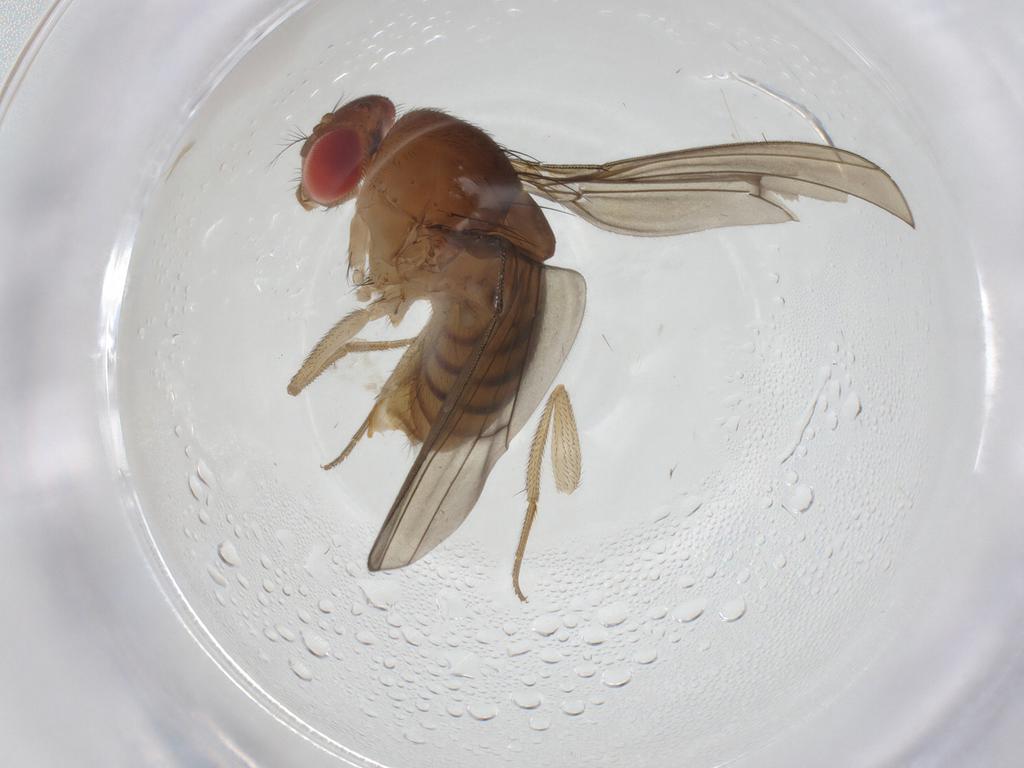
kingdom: Animalia
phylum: Arthropoda
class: Insecta
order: Diptera
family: Drosophilidae
